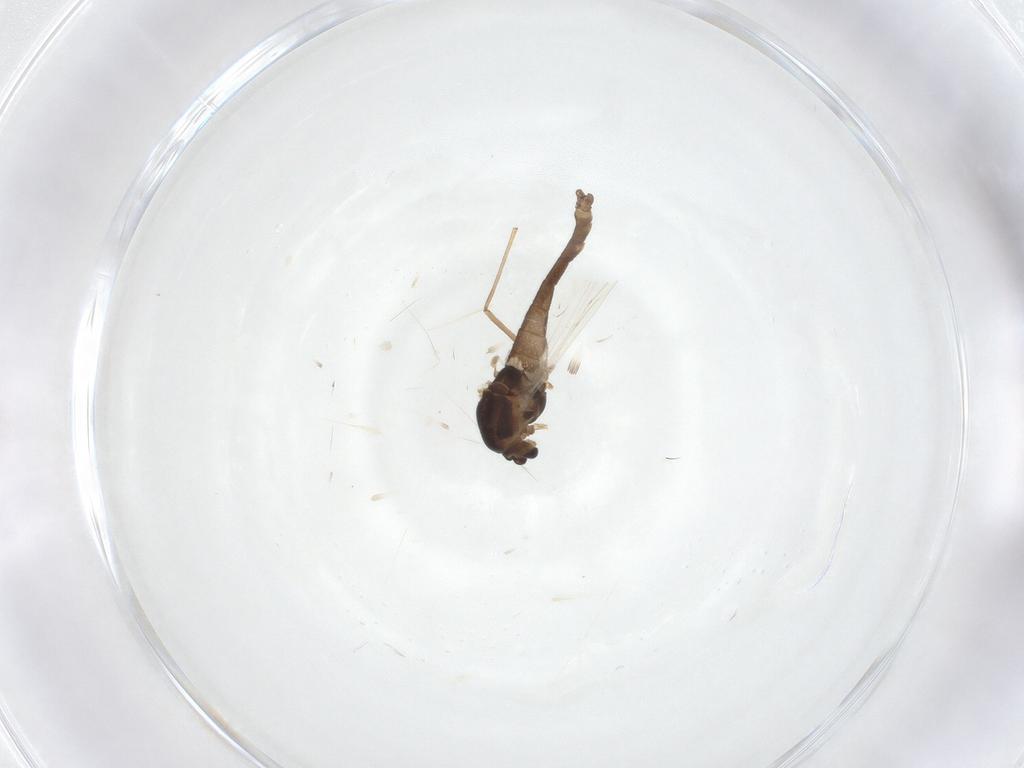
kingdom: Animalia
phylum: Arthropoda
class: Insecta
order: Diptera
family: Chironomidae
